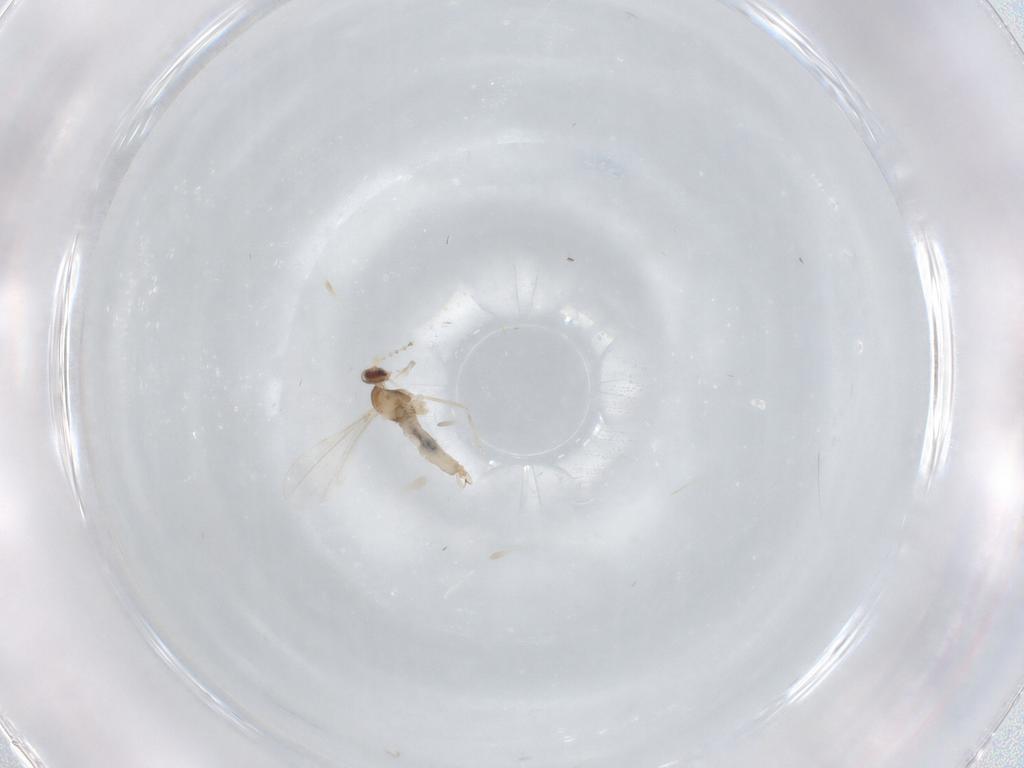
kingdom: Animalia
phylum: Arthropoda
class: Insecta
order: Diptera
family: Cecidomyiidae
